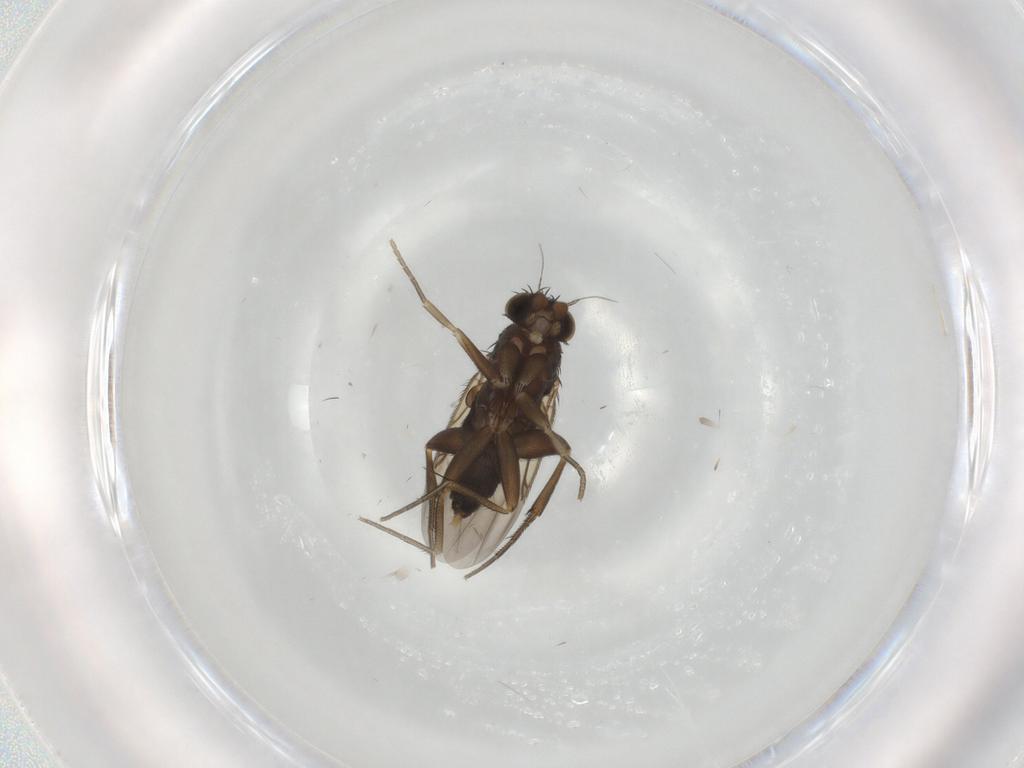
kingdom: Animalia
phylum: Arthropoda
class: Insecta
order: Diptera
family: Phoridae
